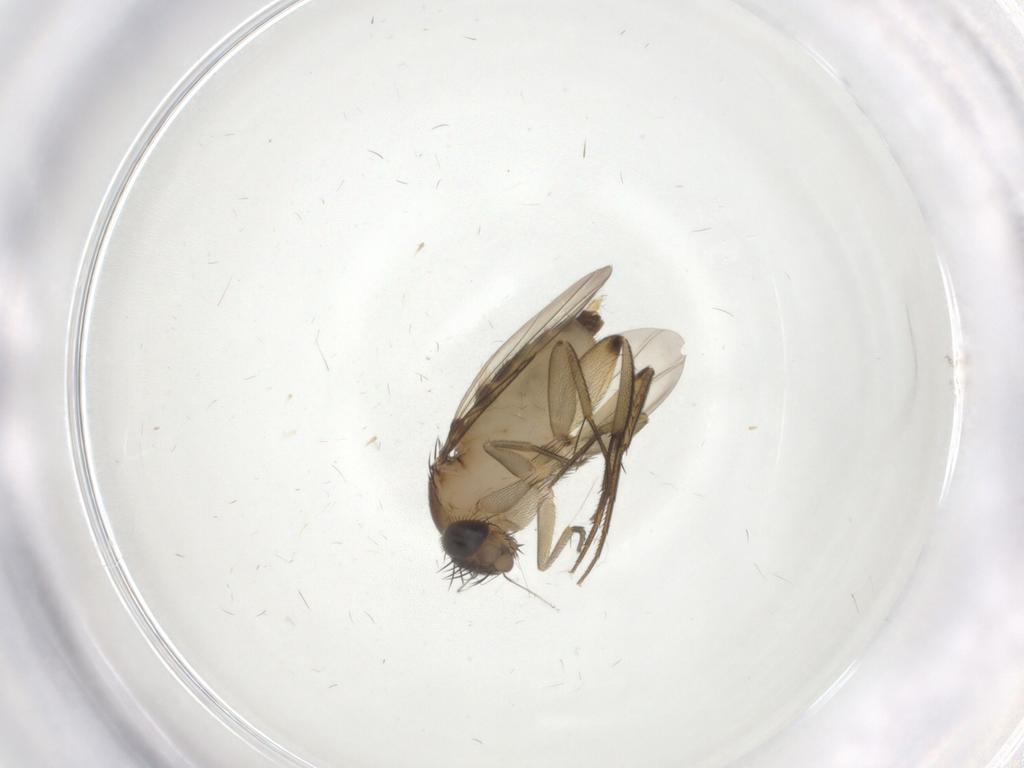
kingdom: Animalia
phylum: Arthropoda
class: Insecta
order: Diptera
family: Phoridae
